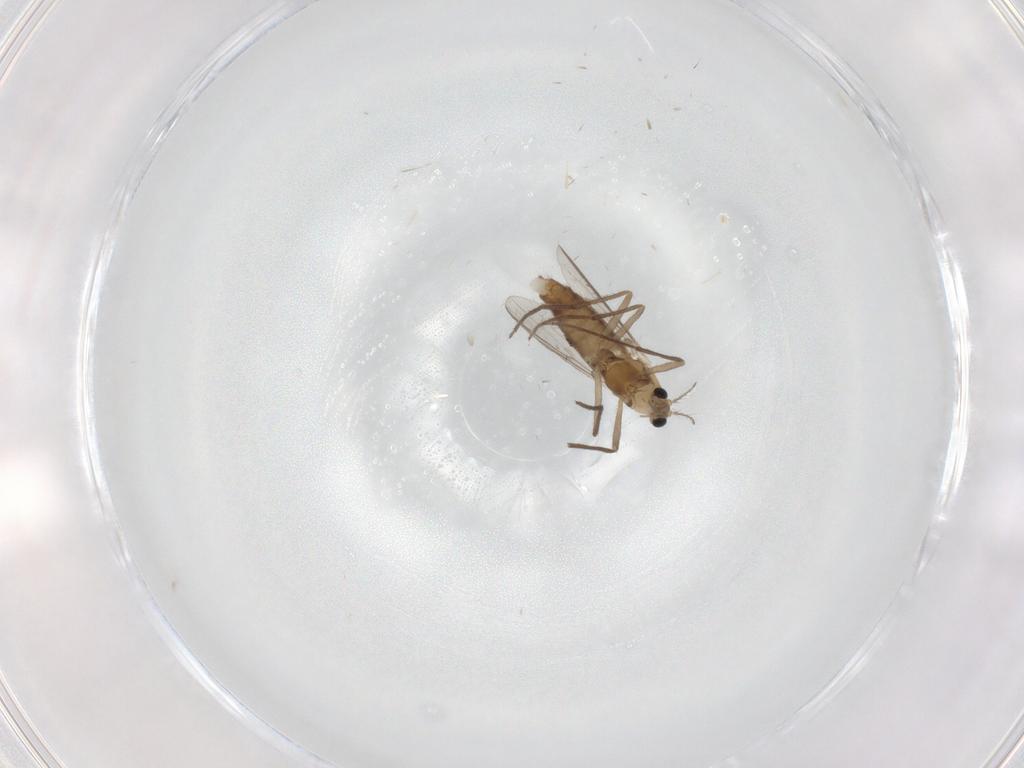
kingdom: Animalia
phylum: Arthropoda
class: Insecta
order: Diptera
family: Chironomidae
